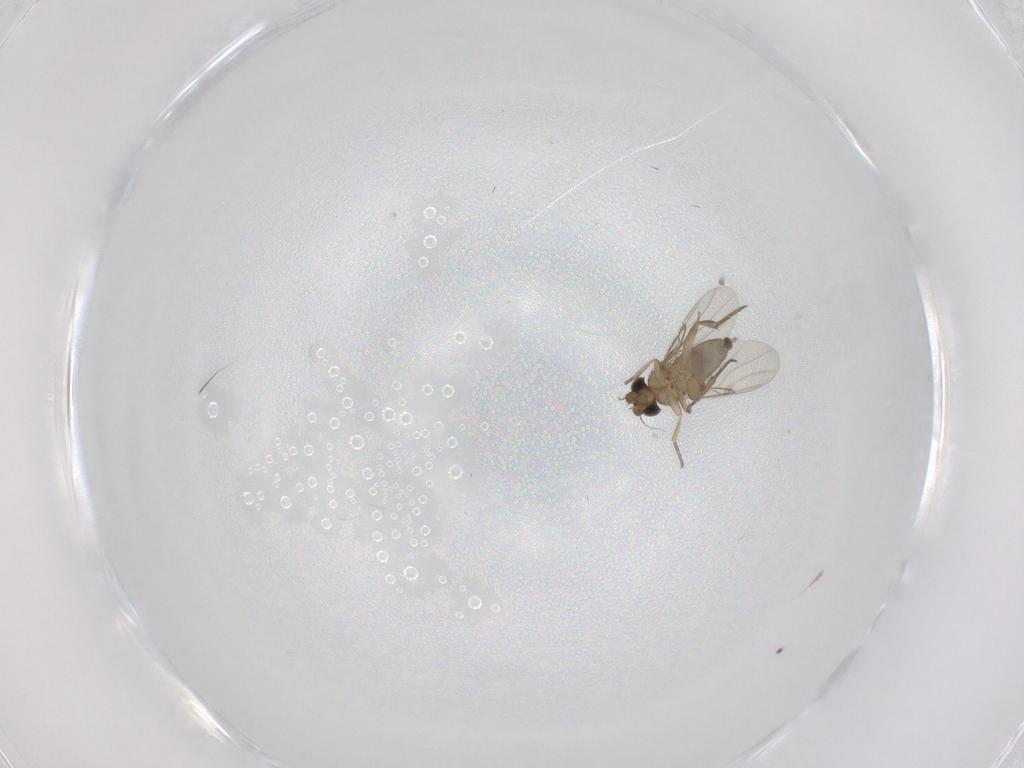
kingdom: Animalia
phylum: Arthropoda
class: Insecta
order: Diptera
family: Phoridae
